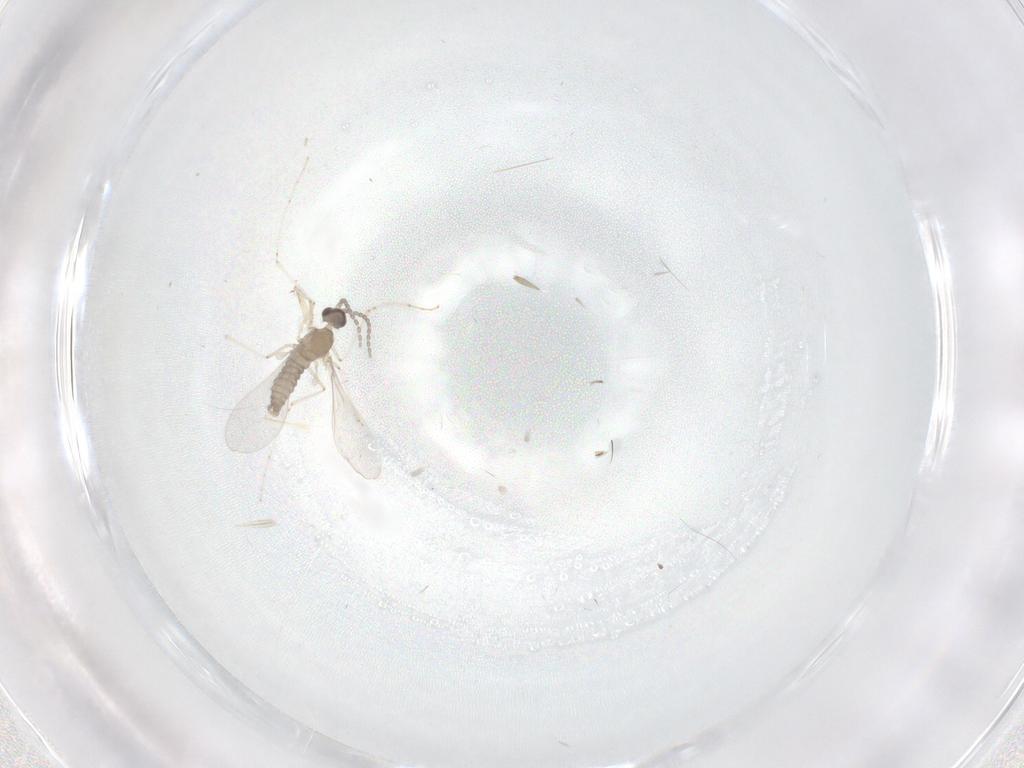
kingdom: Animalia
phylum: Arthropoda
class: Insecta
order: Diptera
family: Cecidomyiidae
